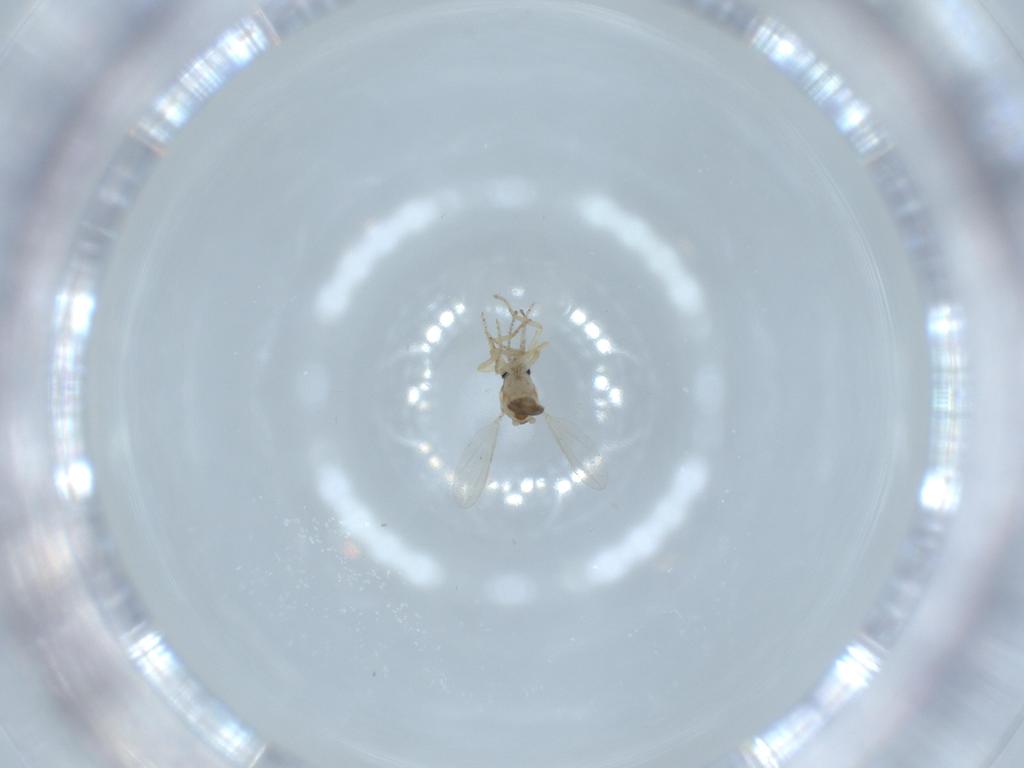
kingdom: Animalia
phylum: Arthropoda
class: Insecta
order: Diptera
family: Ceratopogonidae
